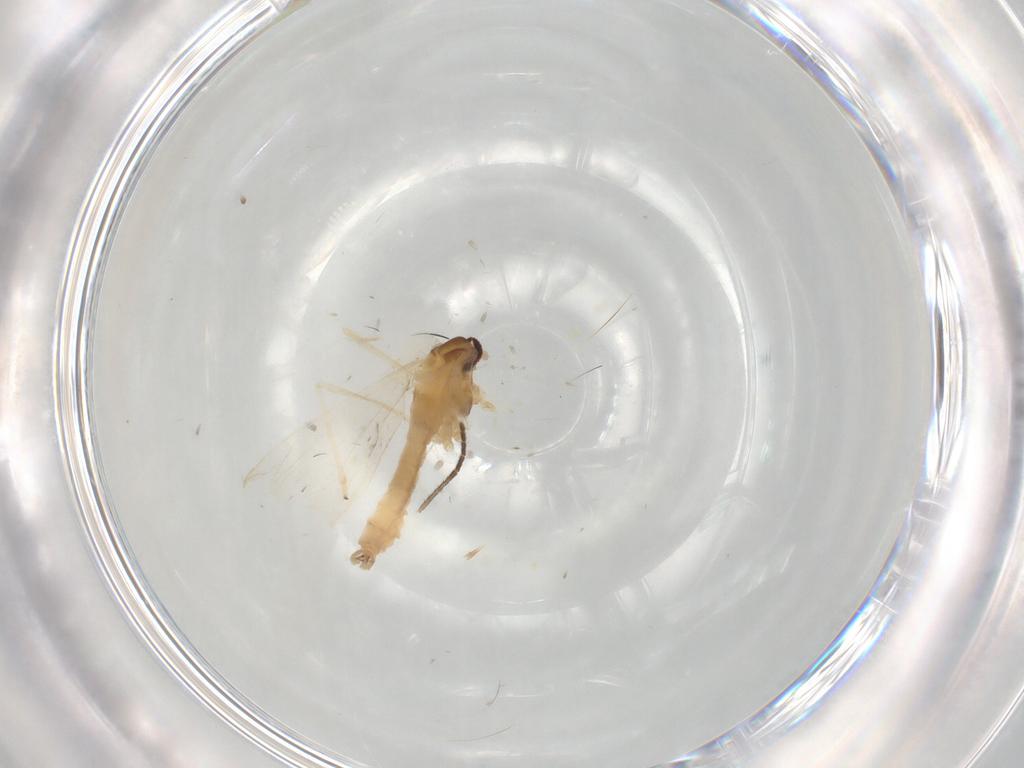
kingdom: Animalia
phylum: Arthropoda
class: Insecta
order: Diptera
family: Cecidomyiidae
